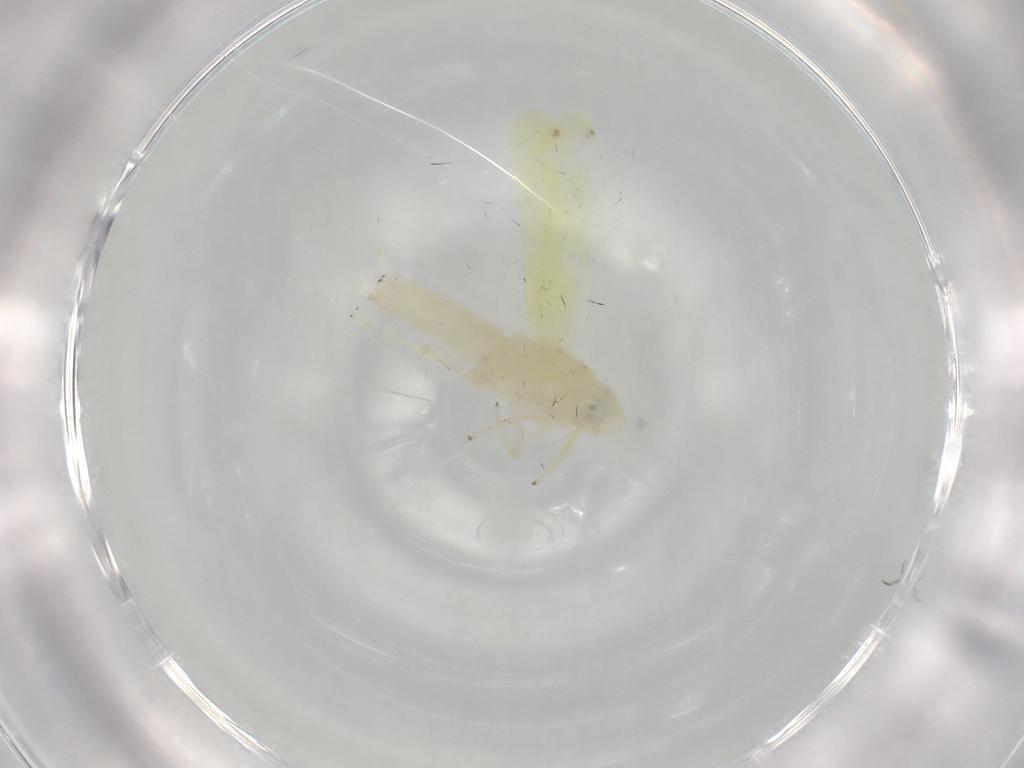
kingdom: Animalia
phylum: Arthropoda
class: Insecta
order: Hemiptera
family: Cicadellidae
